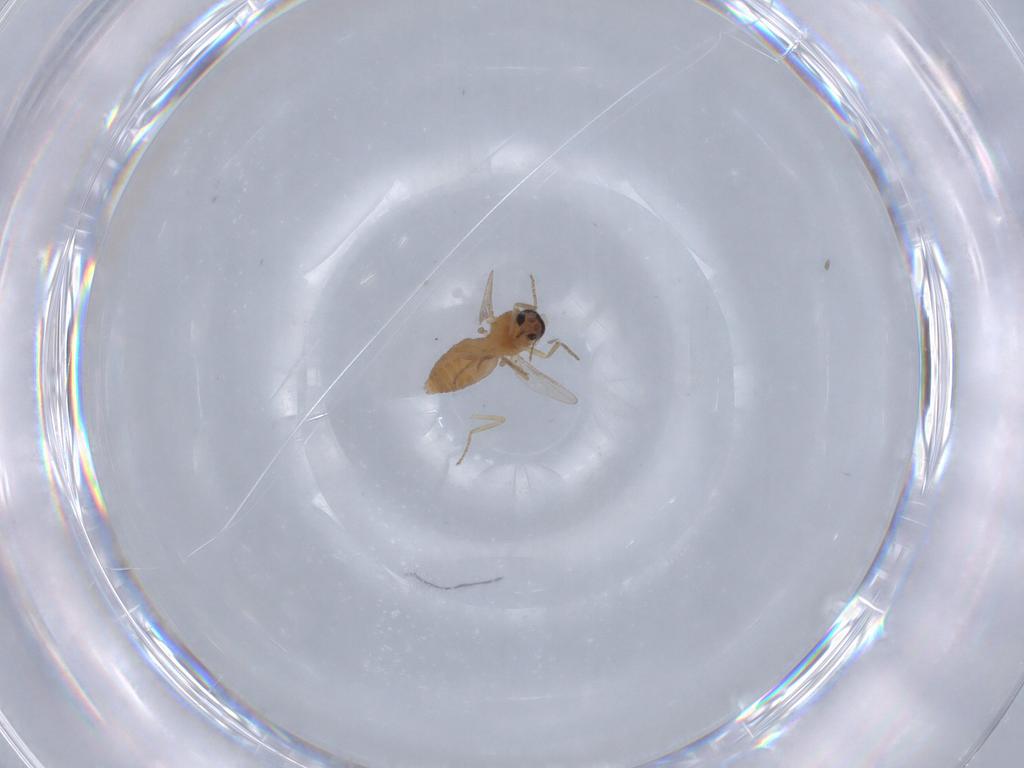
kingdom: Animalia
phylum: Arthropoda
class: Insecta
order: Diptera
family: Ceratopogonidae
